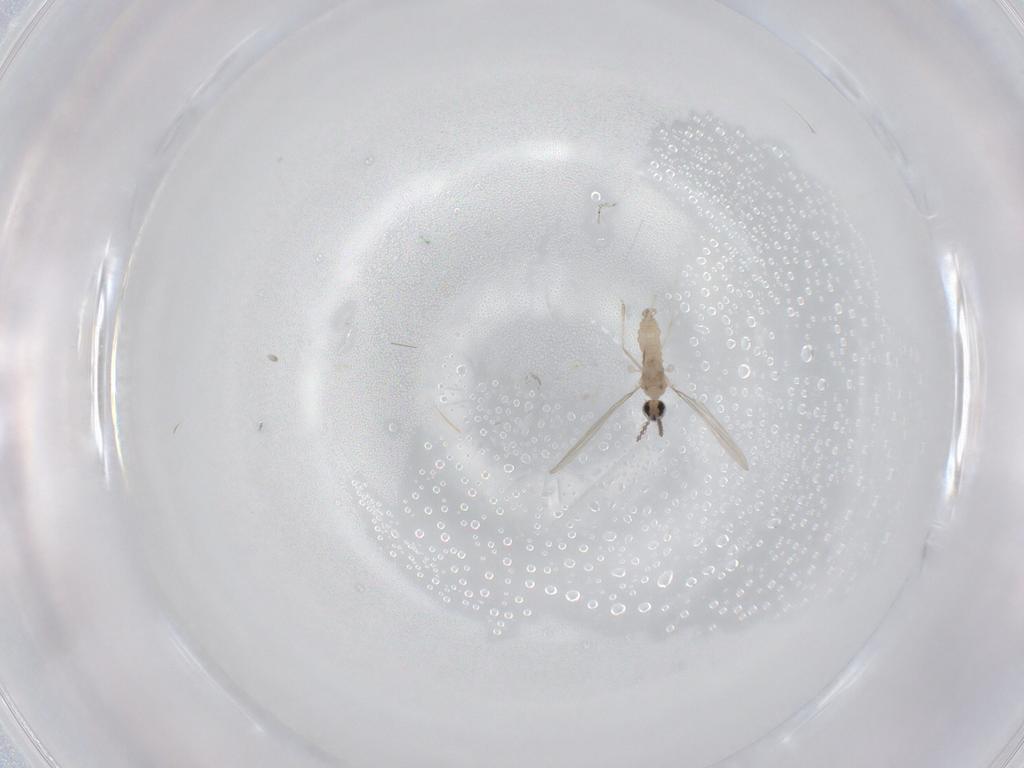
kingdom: Animalia
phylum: Arthropoda
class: Insecta
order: Diptera
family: Cecidomyiidae
